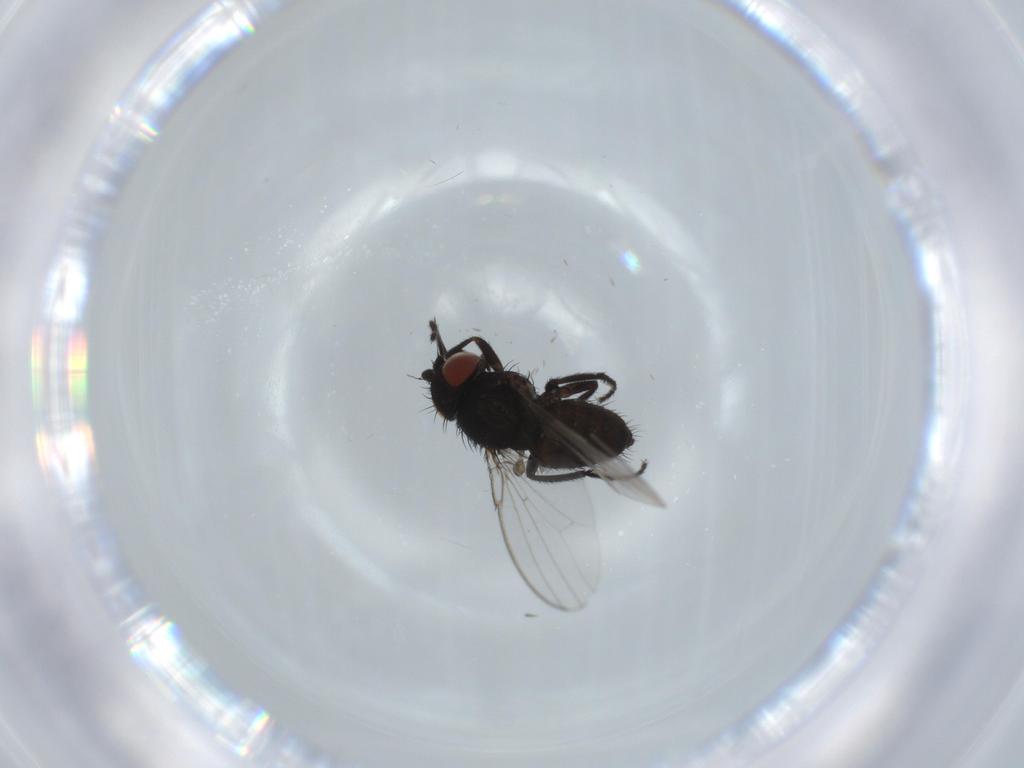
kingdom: Animalia
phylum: Arthropoda
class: Insecta
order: Diptera
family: Milichiidae
